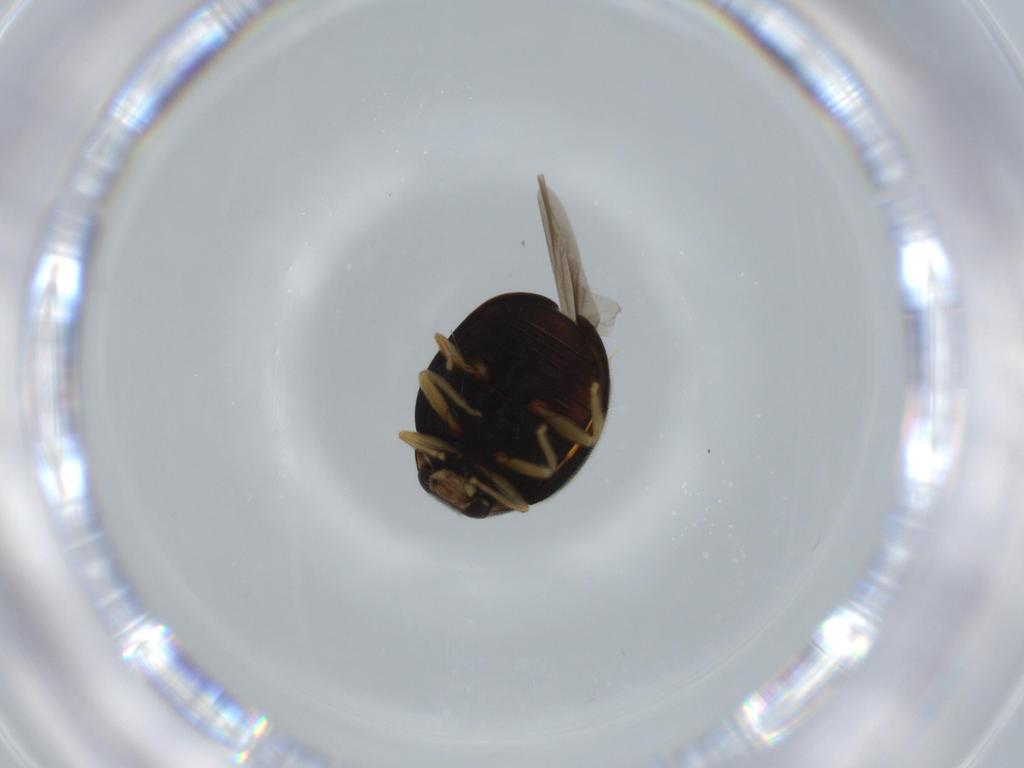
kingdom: Animalia
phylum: Arthropoda
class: Insecta
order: Coleoptera
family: Coccinellidae
